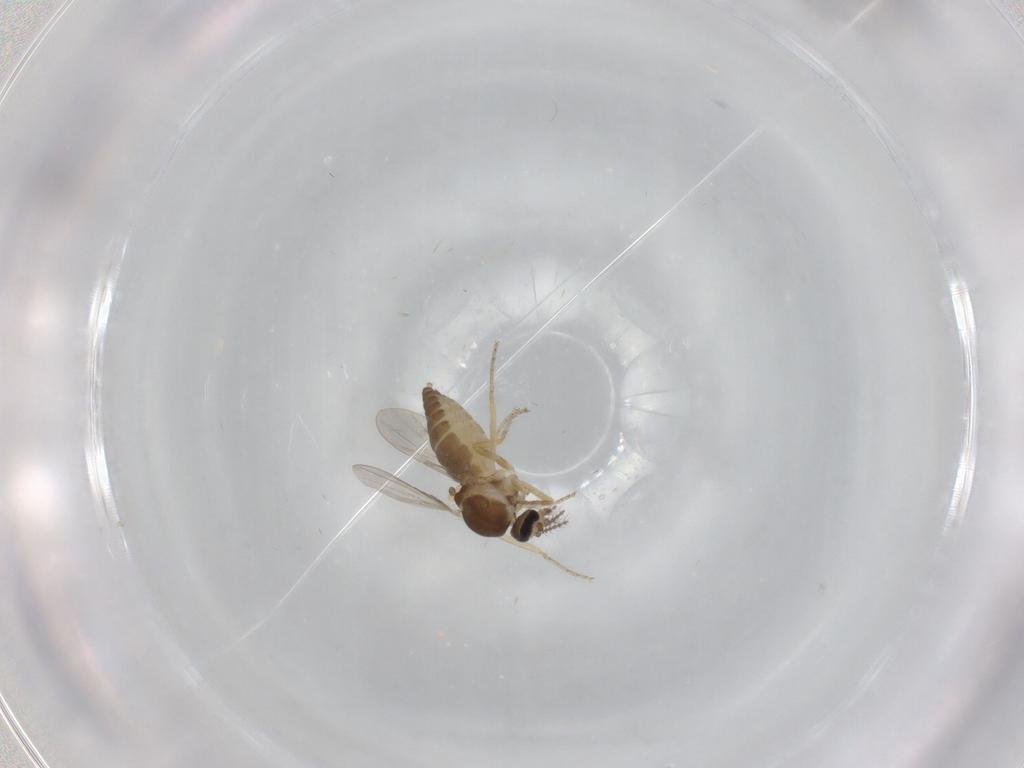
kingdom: Animalia
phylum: Arthropoda
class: Insecta
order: Diptera
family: Ceratopogonidae
